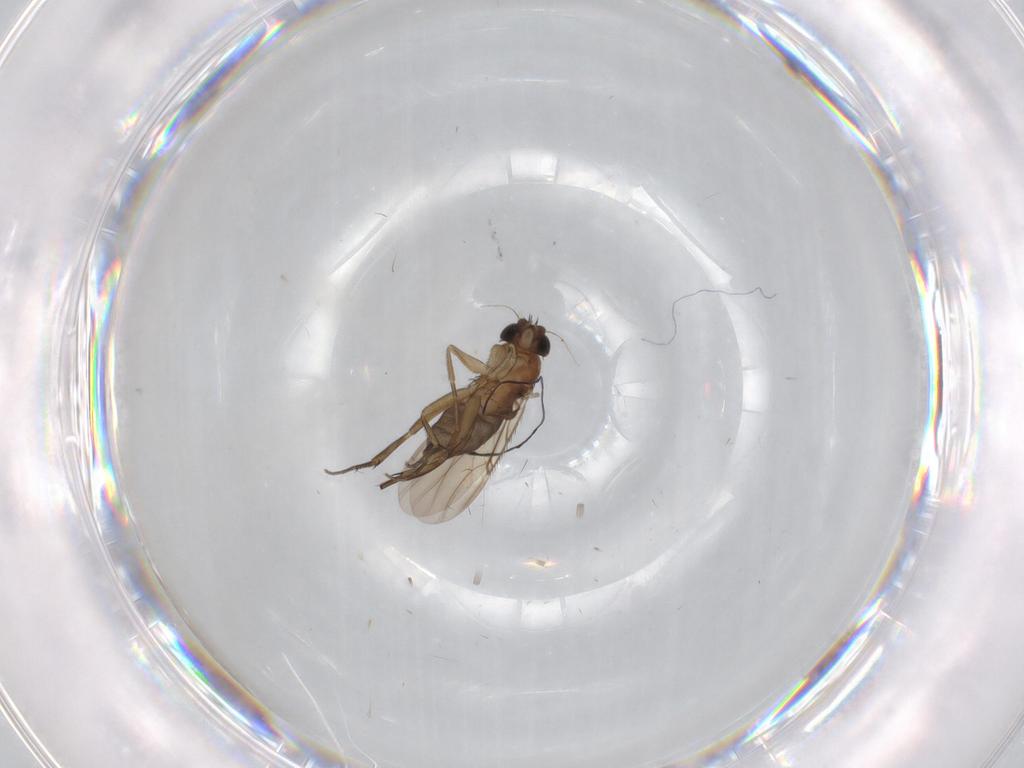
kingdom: Animalia
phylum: Arthropoda
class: Insecta
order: Diptera
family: Phoridae
